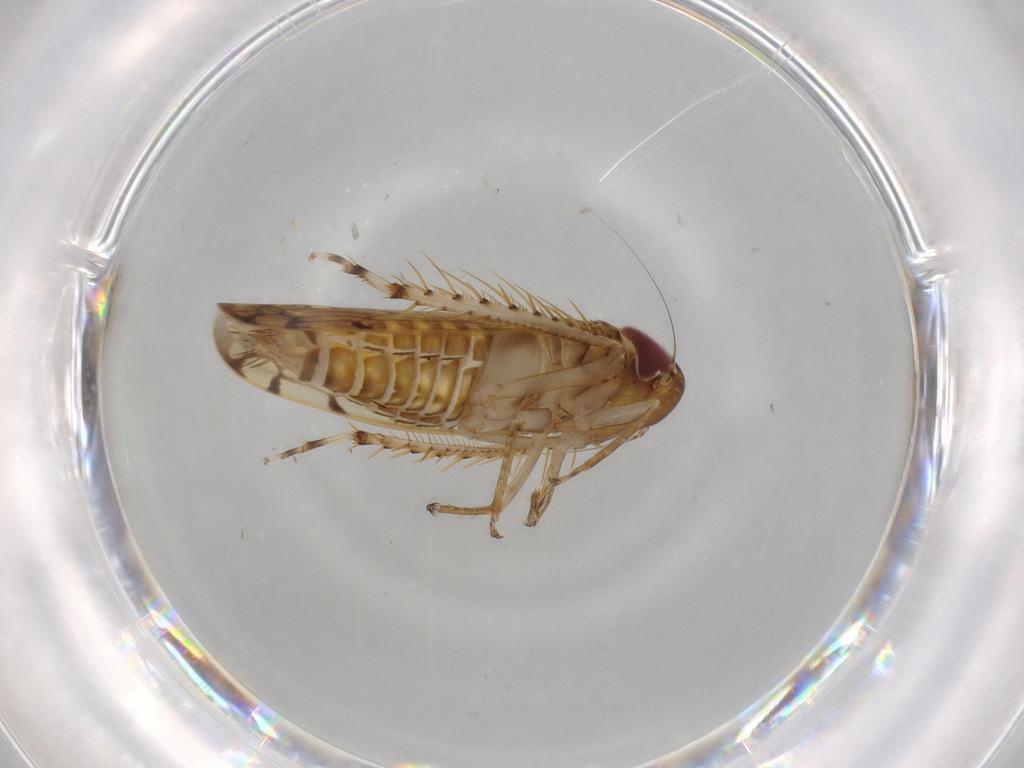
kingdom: Animalia
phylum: Arthropoda
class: Insecta
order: Hemiptera
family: Cicadellidae
